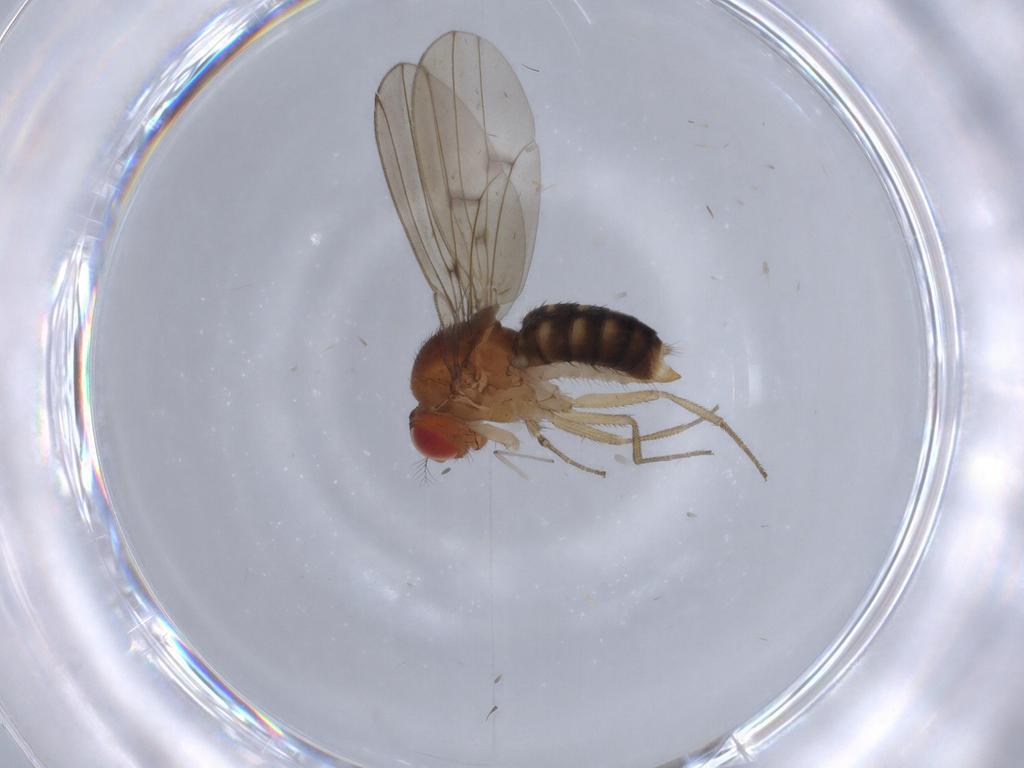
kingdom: Animalia
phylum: Arthropoda
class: Insecta
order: Diptera
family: Drosophilidae
